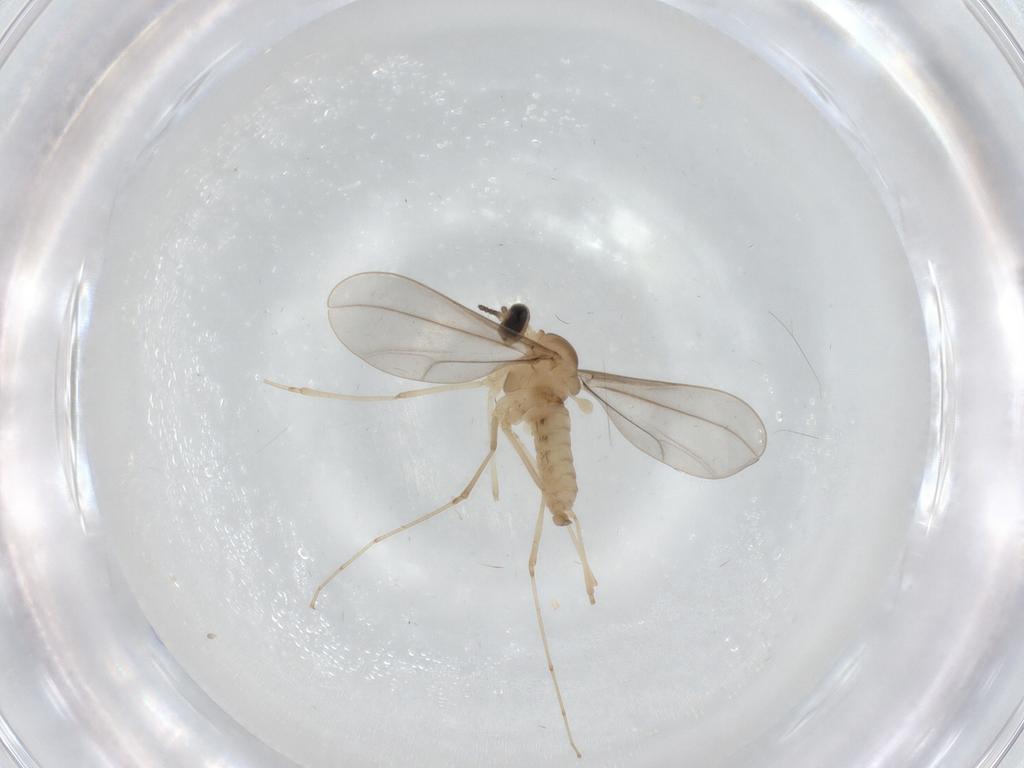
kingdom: Animalia
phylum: Arthropoda
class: Insecta
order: Diptera
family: Cecidomyiidae
